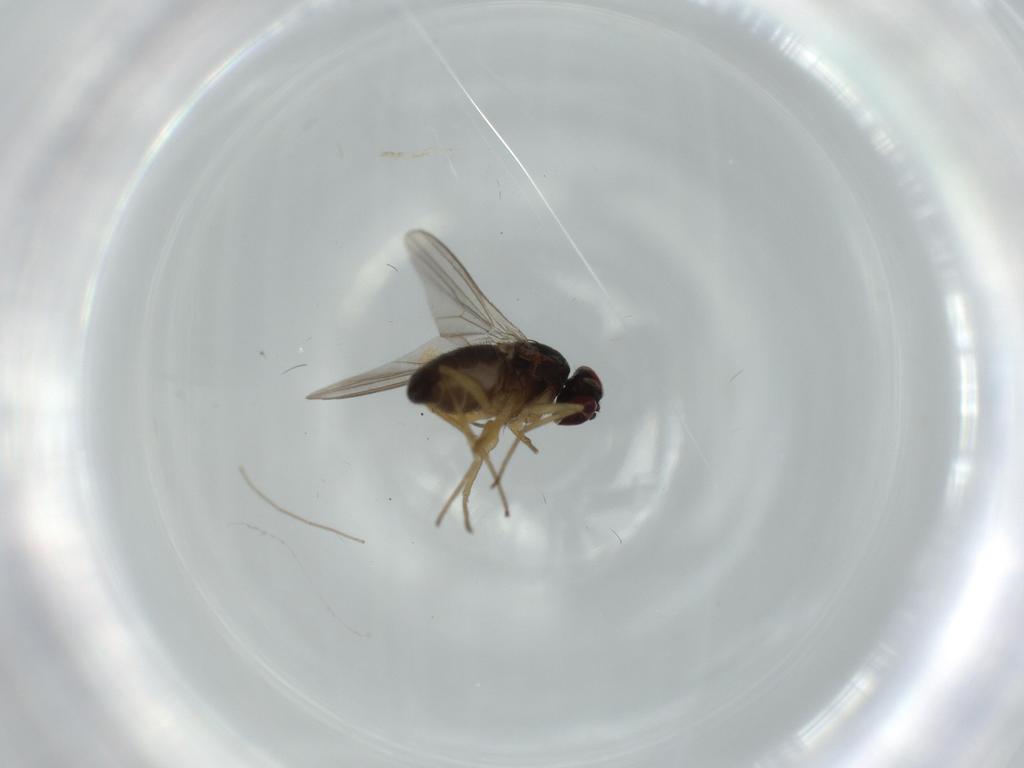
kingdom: Animalia
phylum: Arthropoda
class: Insecta
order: Diptera
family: Dolichopodidae
